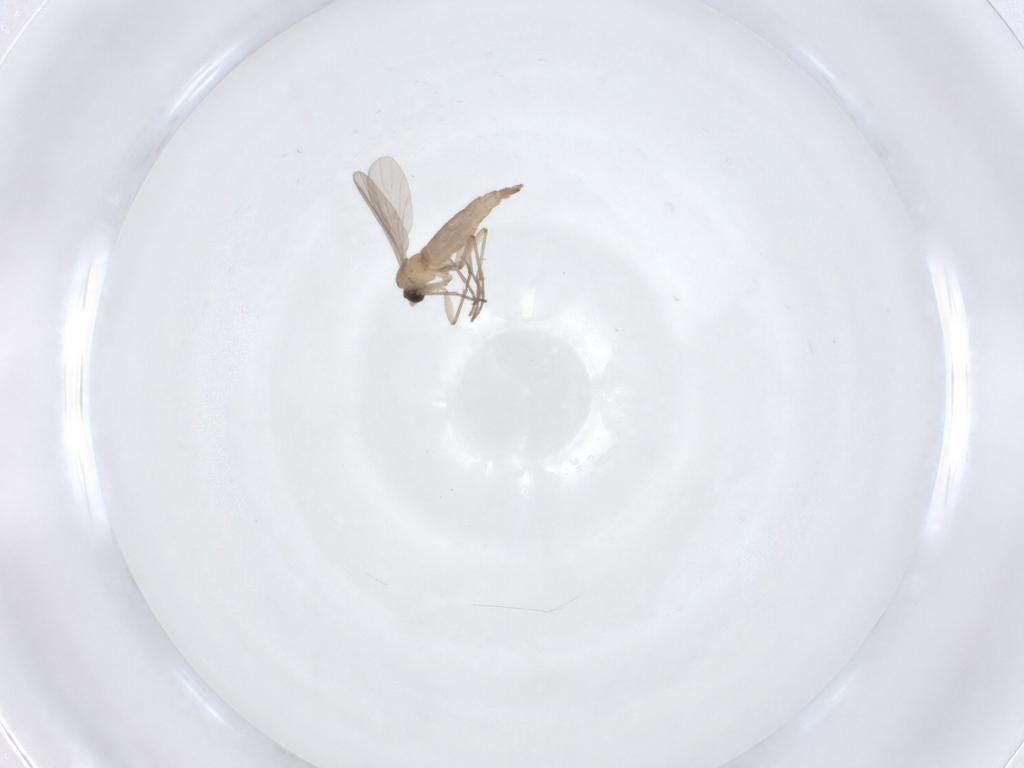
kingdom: Animalia
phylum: Arthropoda
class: Insecta
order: Diptera
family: Sciaridae
